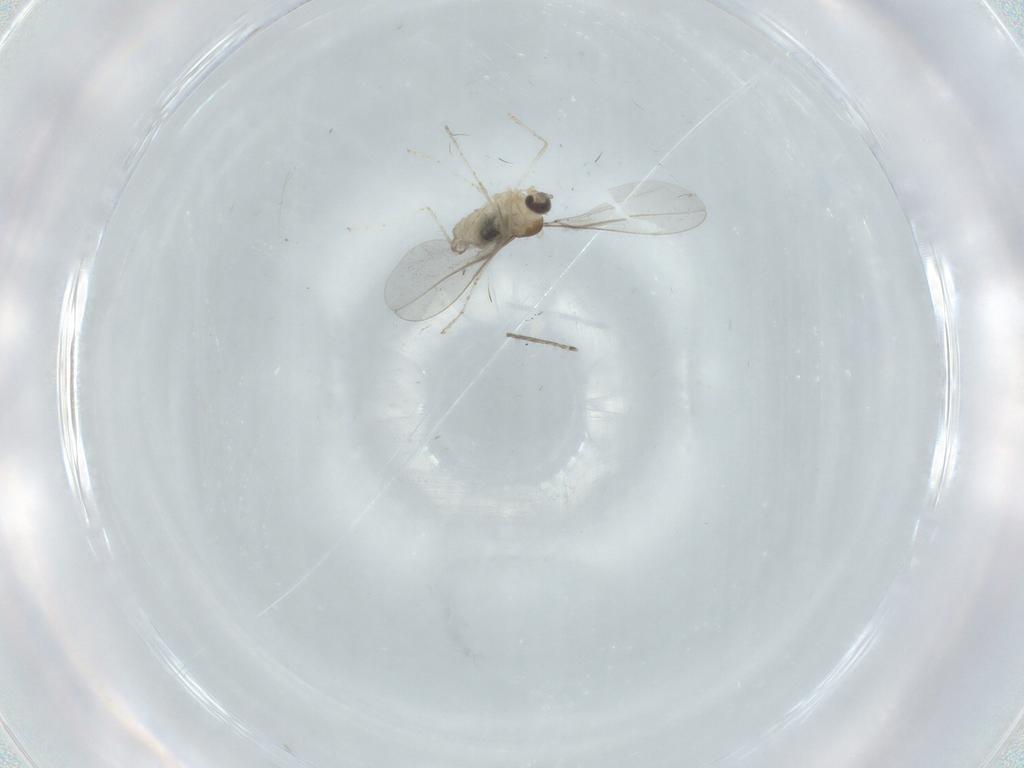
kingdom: Animalia
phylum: Arthropoda
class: Insecta
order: Diptera
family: Cecidomyiidae
